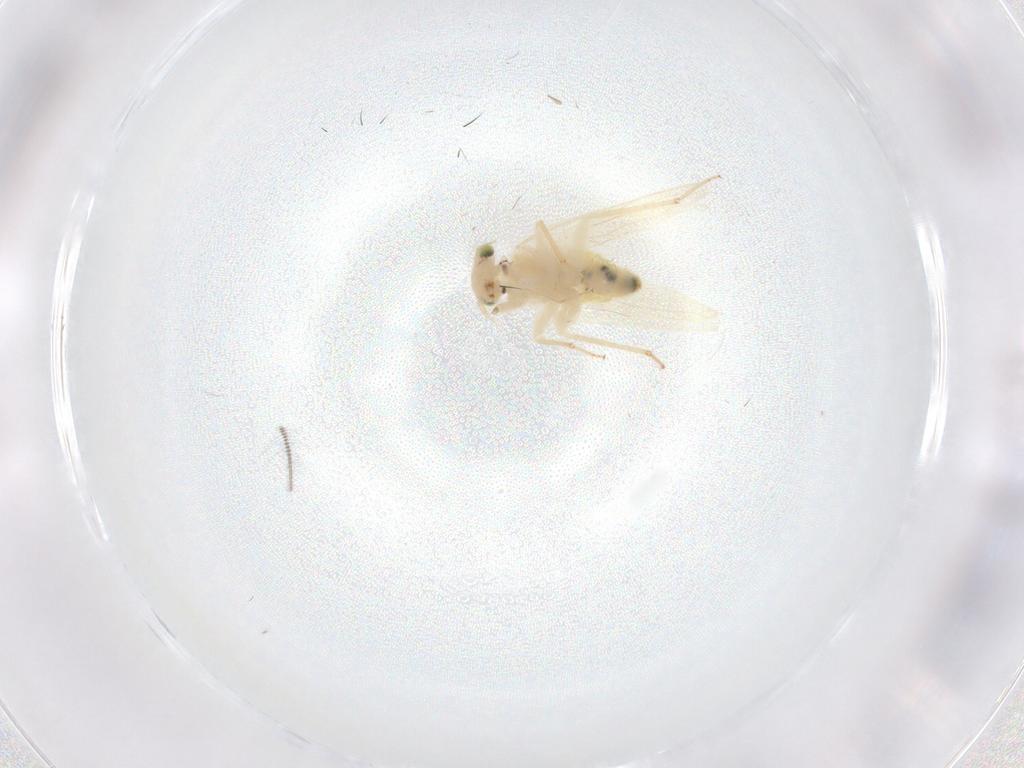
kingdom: Animalia
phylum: Arthropoda
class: Insecta
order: Psocodea
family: Lepidopsocidae
